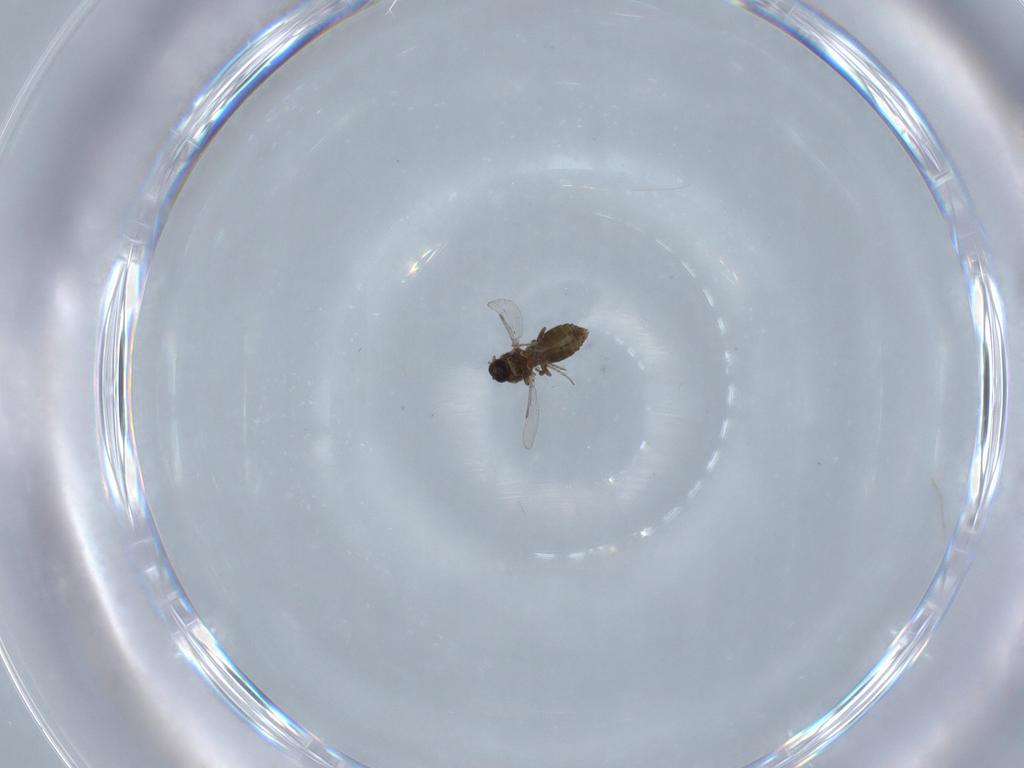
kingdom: Animalia
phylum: Arthropoda
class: Insecta
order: Diptera
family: Ceratopogonidae
